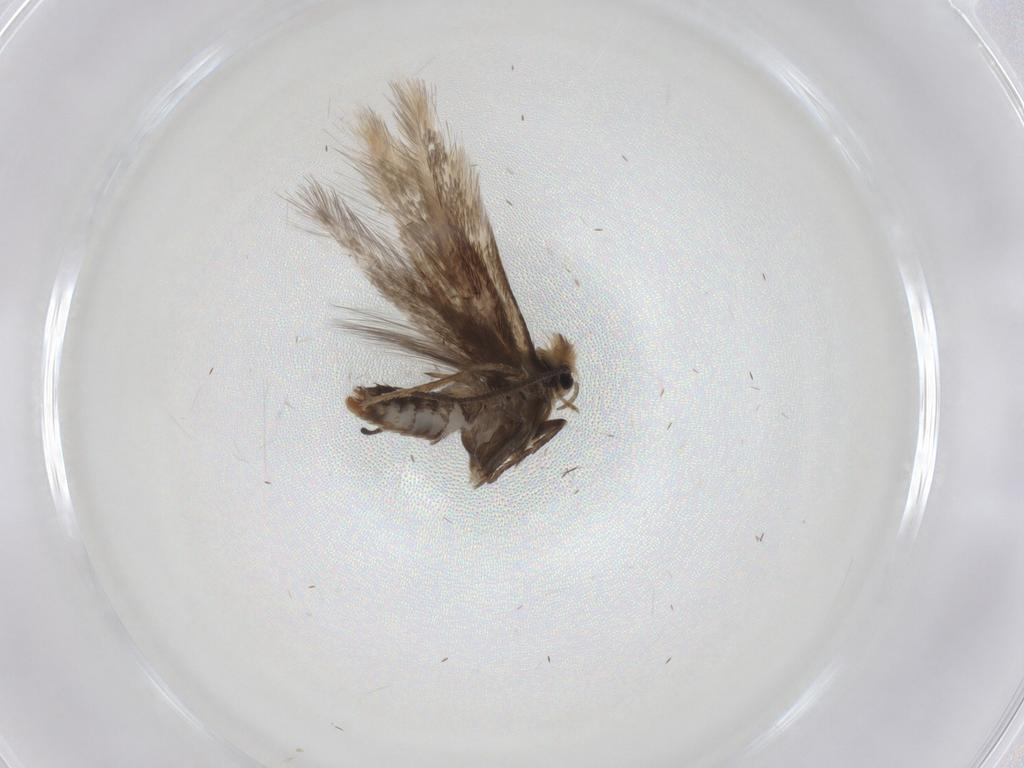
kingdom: Animalia
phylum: Arthropoda
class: Insecta
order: Lepidoptera
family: Nepticulidae
